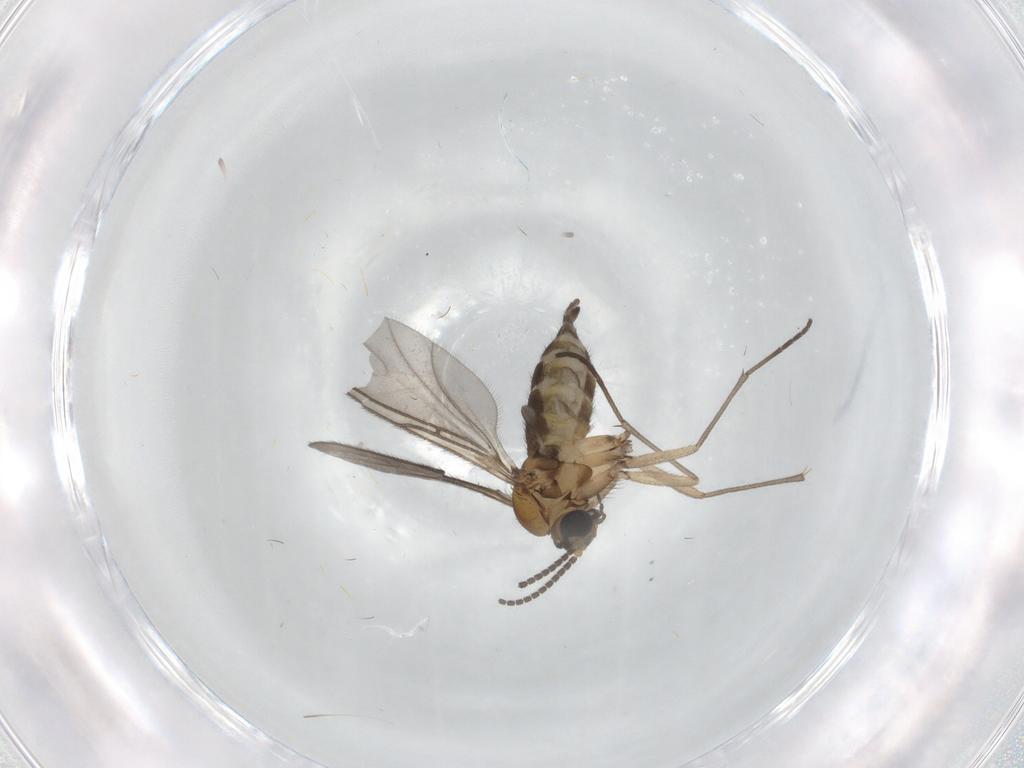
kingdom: Animalia
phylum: Arthropoda
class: Insecta
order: Diptera
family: Sciaridae
